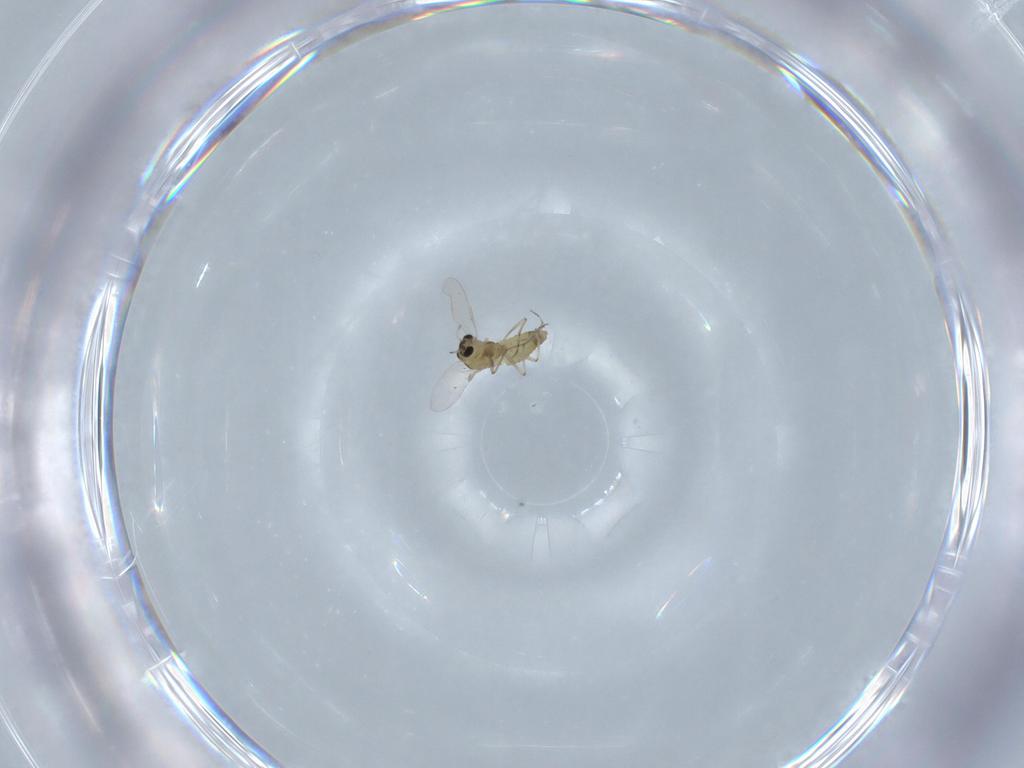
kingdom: Animalia
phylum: Arthropoda
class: Insecta
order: Diptera
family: Chironomidae
